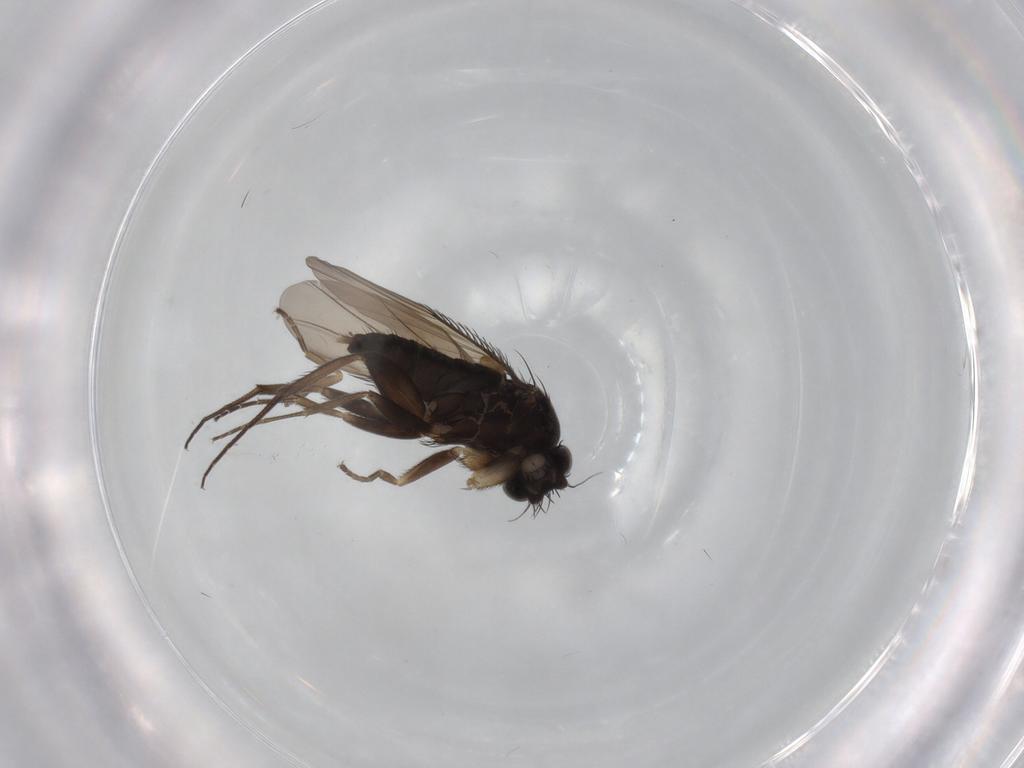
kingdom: Animalia
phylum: Arthropoda
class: Insecta
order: Diptera
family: Phoridae
